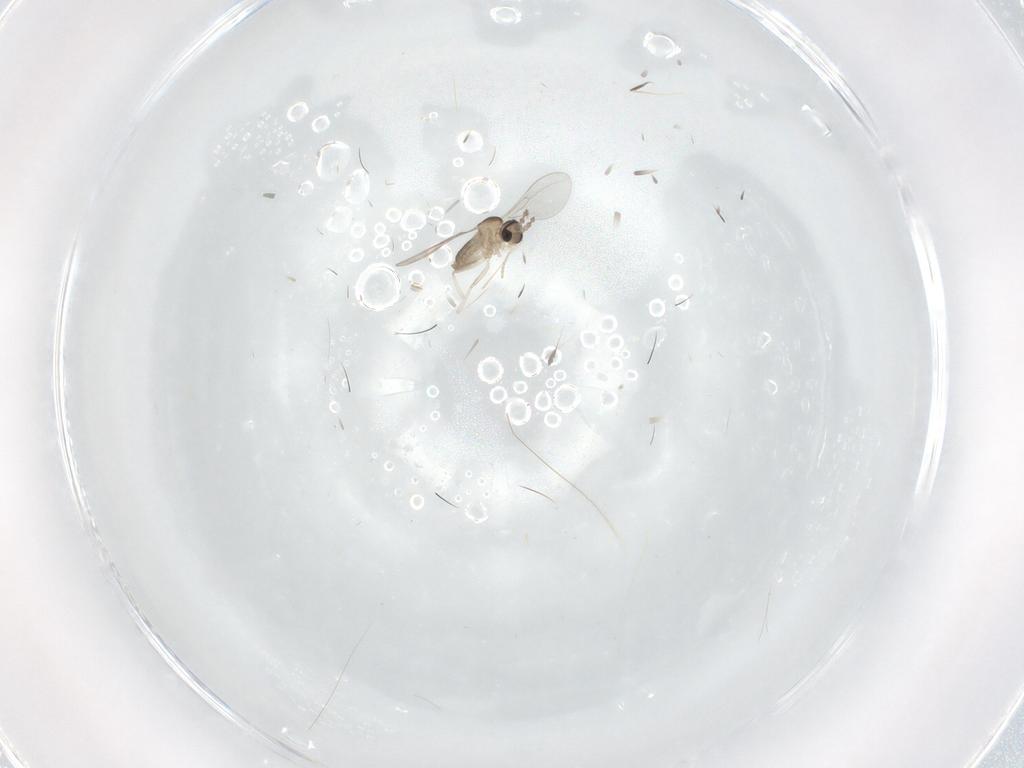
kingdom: Animalia
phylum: Arthropoda
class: Insecta
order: Diptera
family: Cecidomyiidae
